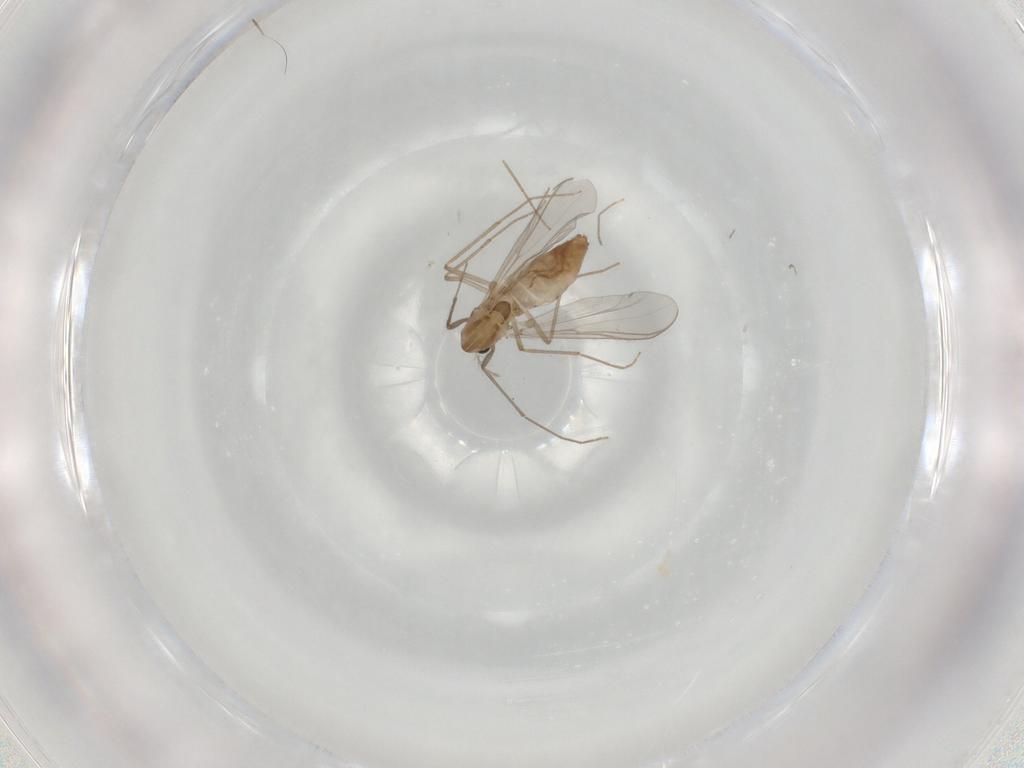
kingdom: Animalia
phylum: Arthropoda
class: Insecta
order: Diptera
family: Chironomidae
